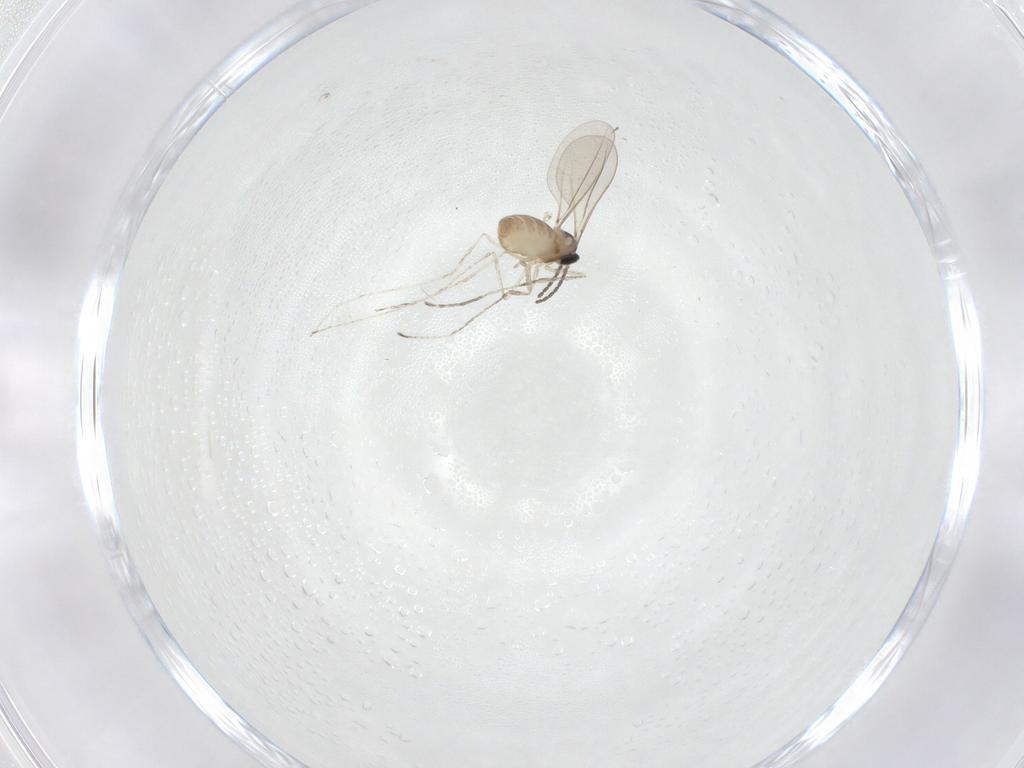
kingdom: Animalia
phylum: Arthropoda
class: Insecta
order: Diptera
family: Cecidomyiidae
